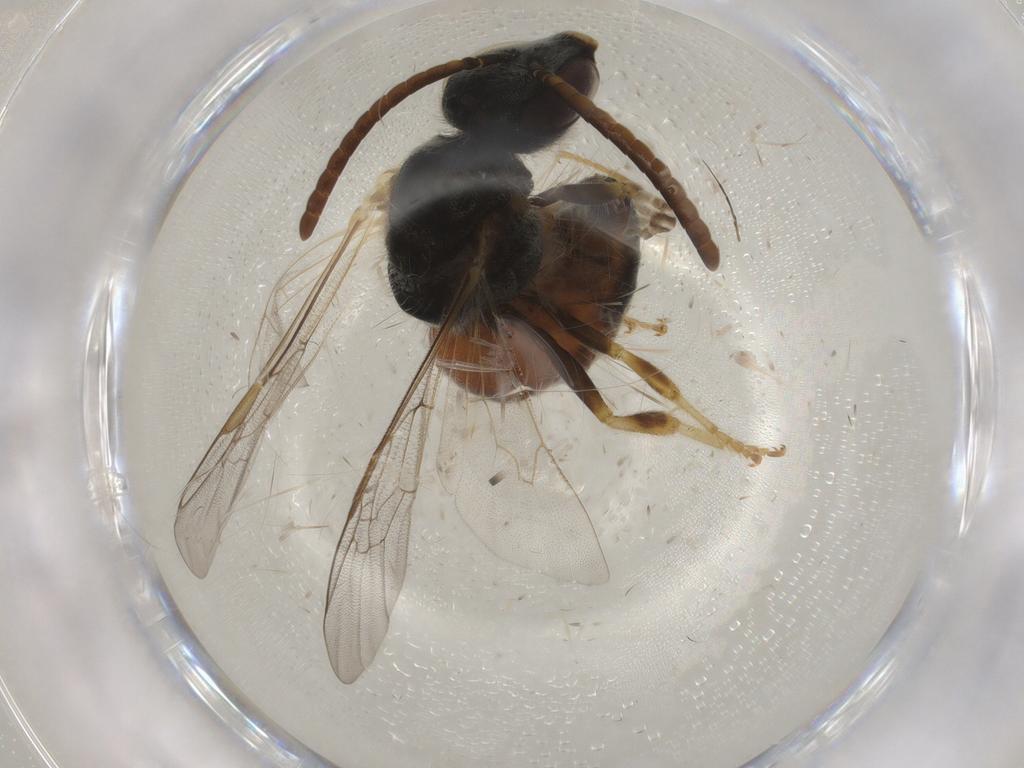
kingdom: Animalia
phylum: Arthropoda
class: Insecta
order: Hymenoptera
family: Halictidae
